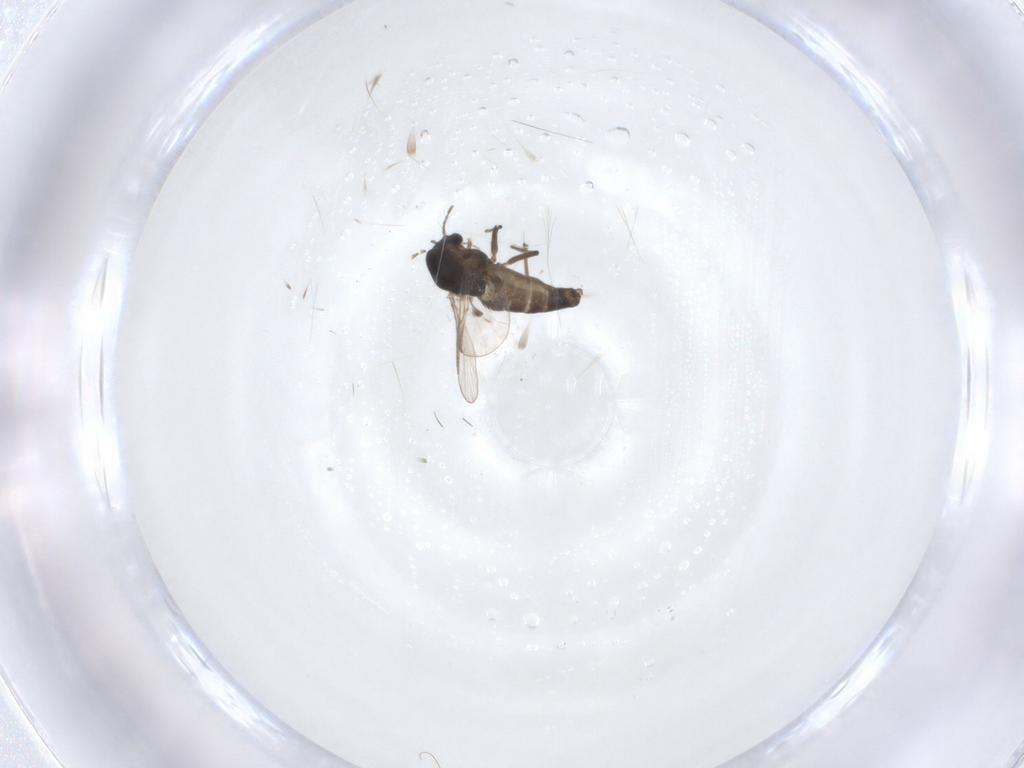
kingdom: Animalia
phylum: Arthropoda
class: Insecta
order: Diptera
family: Chironomidae
